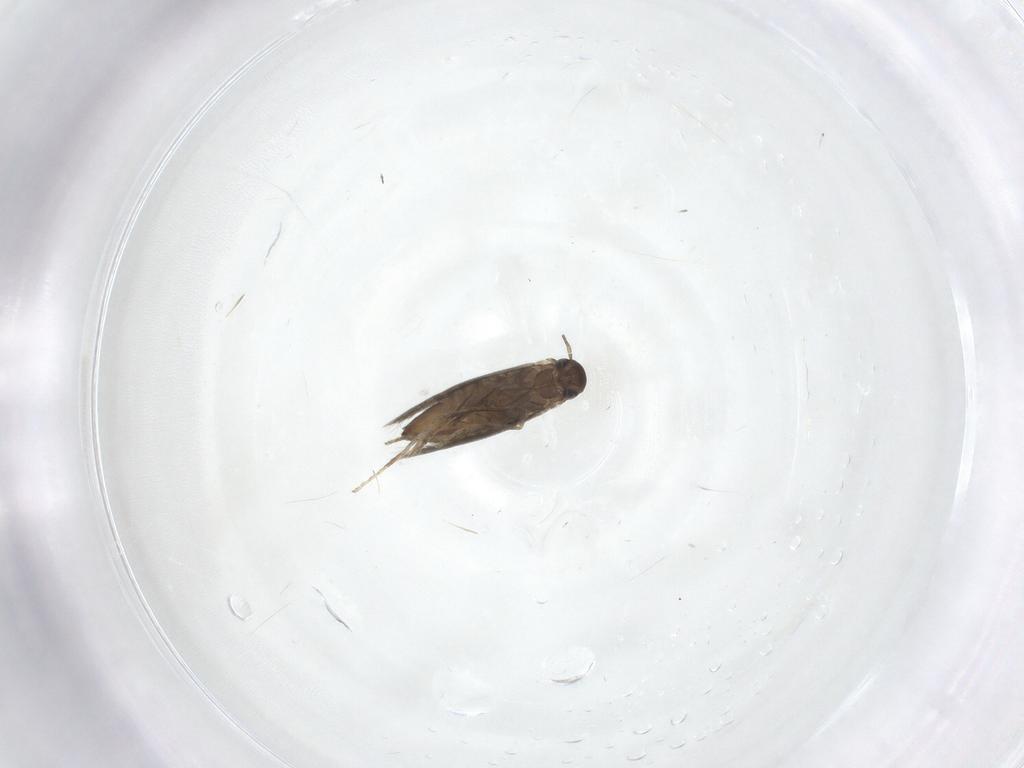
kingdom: Animalia
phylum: Arthropoda
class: Insecta
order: Lepidoptera
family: Heliozelidae
